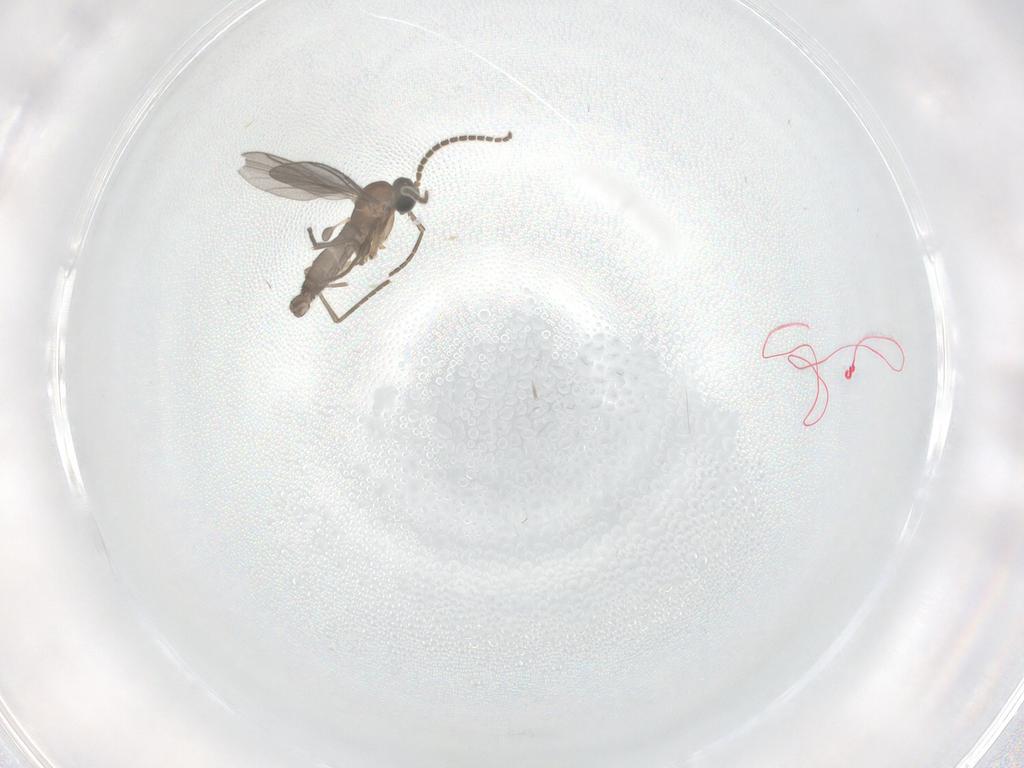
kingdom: Animalia
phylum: Arthropoda
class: Insecta
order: Diptera
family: Sciaridae
